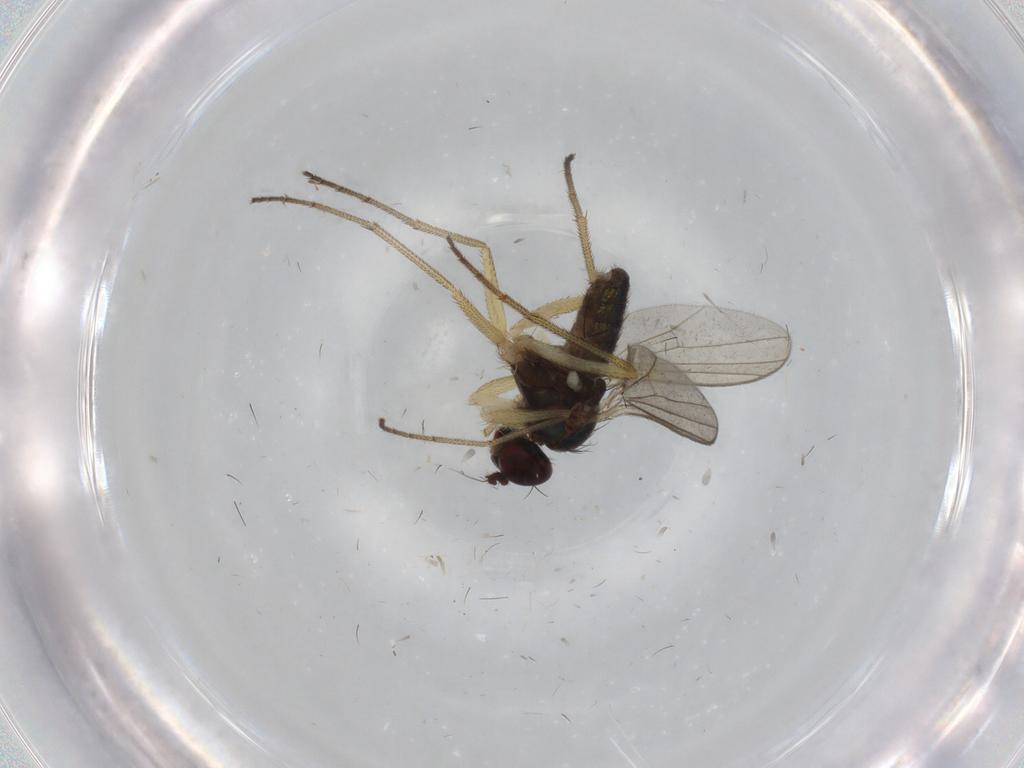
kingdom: Animalia
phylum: Arthropoda
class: Insecta
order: Diptera
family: Dolichopodidae
